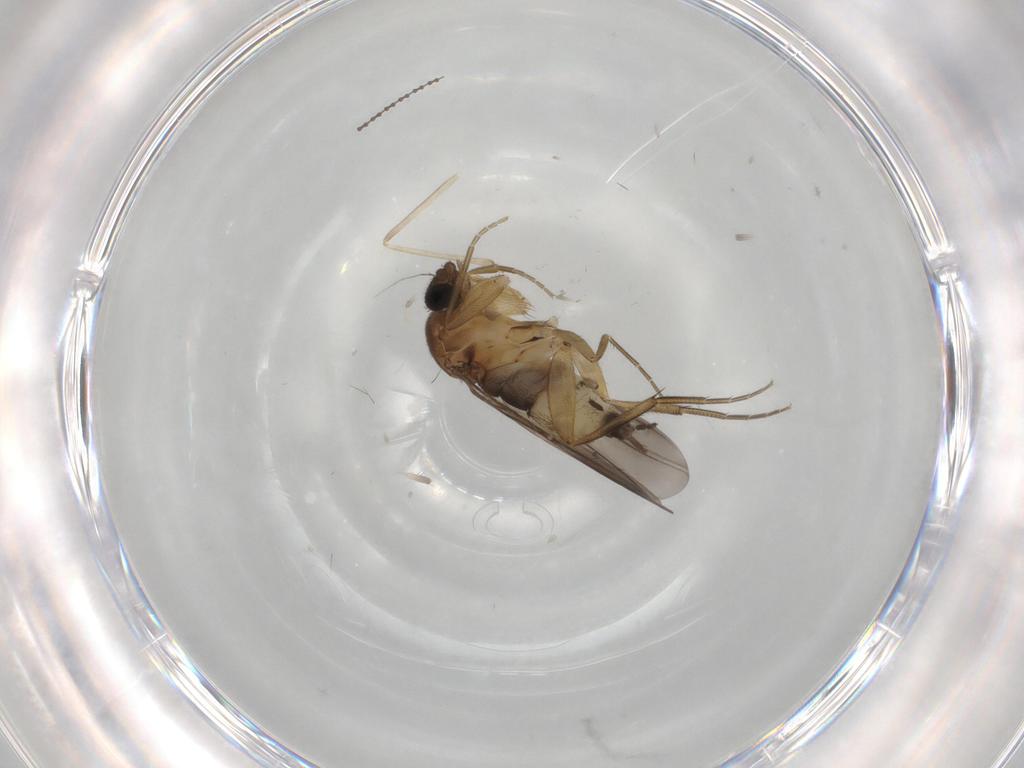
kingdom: Animalia
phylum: Arthropoda
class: Insecta
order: Diptera
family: Phoridae
